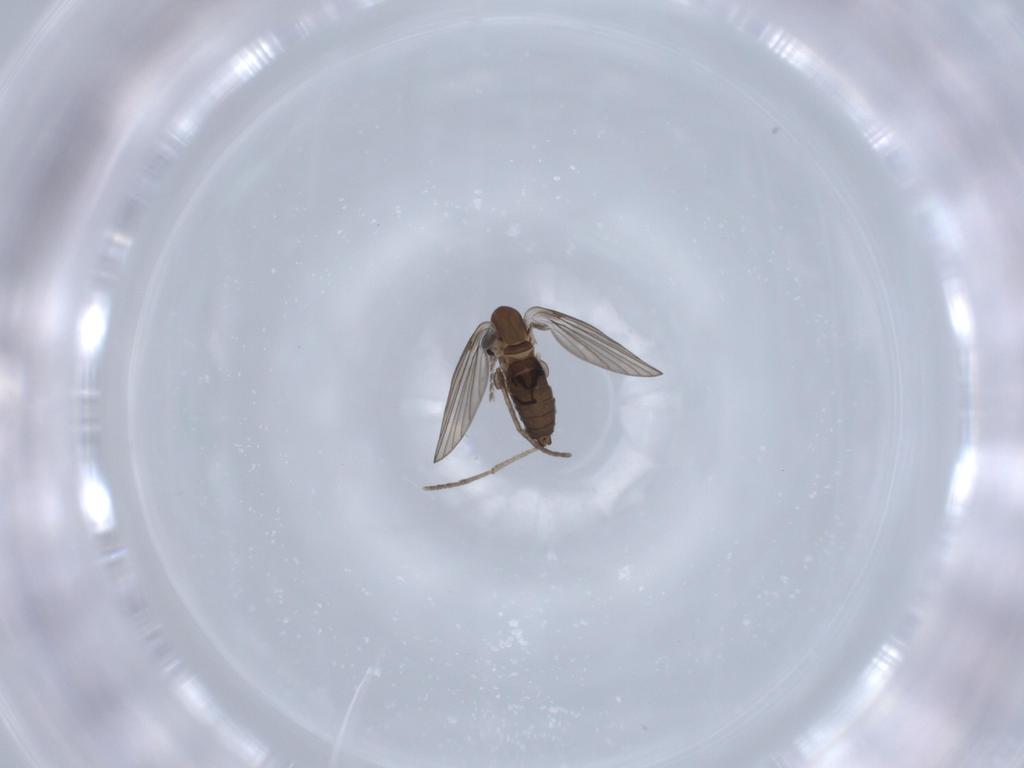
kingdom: Animalia
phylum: Arthropoda
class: Insecta
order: Diptera
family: Psychodidae
